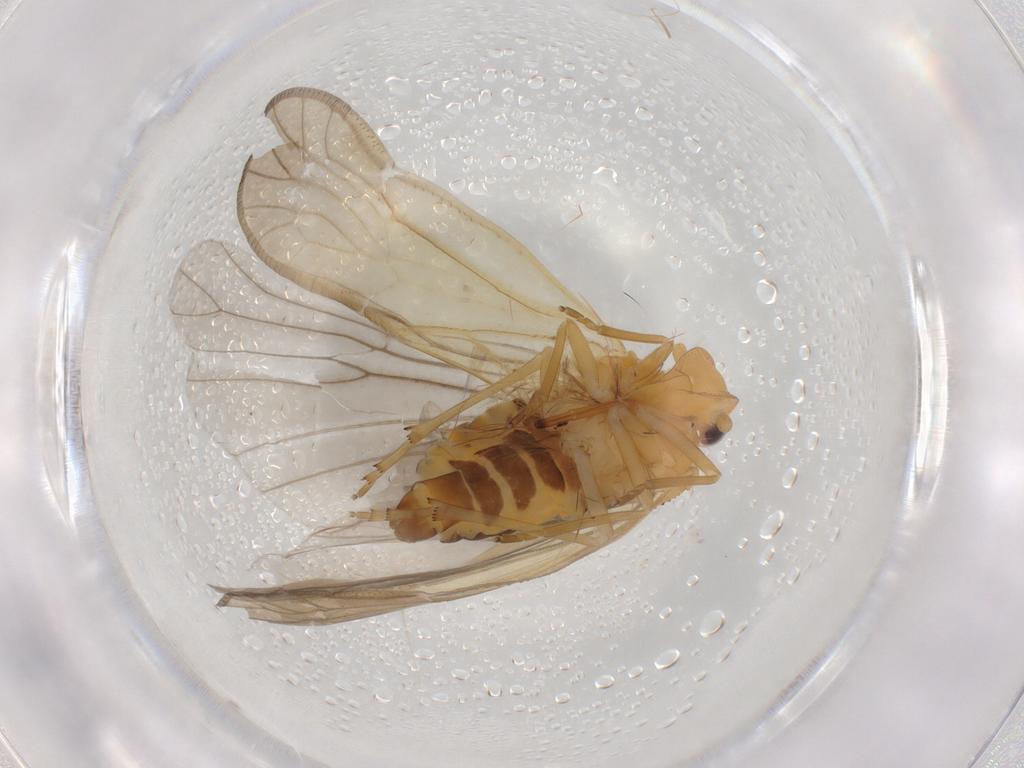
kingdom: Animalia
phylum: Arthropoda
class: Insecta
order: Hemiptera
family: Meenoplidae
